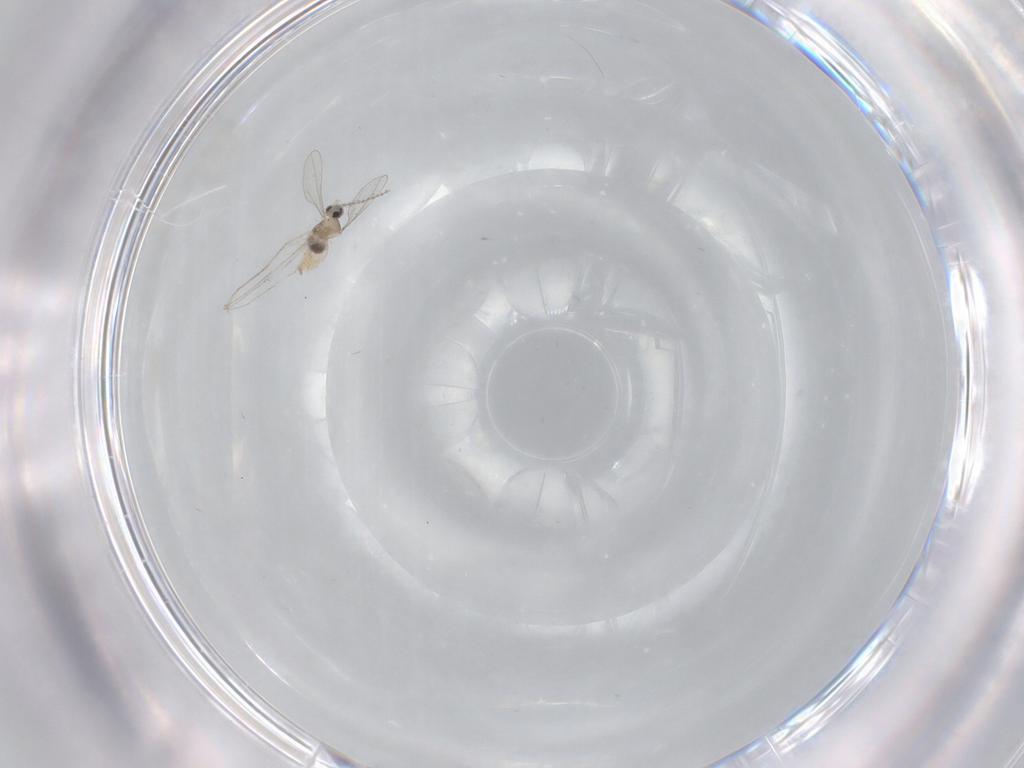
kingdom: Animalia
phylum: Arthropoda
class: Insecta
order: Diptera
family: Cecidomyiidae
